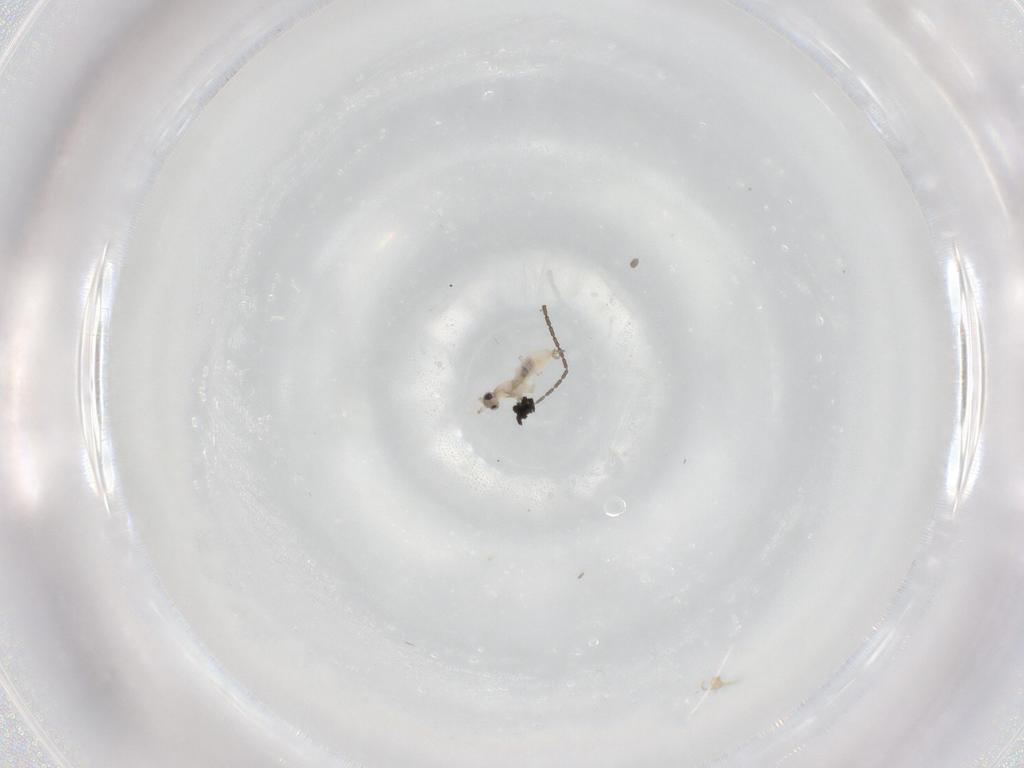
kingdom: Animalia
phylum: Arthropoda
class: Insecta
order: Diptera
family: Cecidomyiidae
